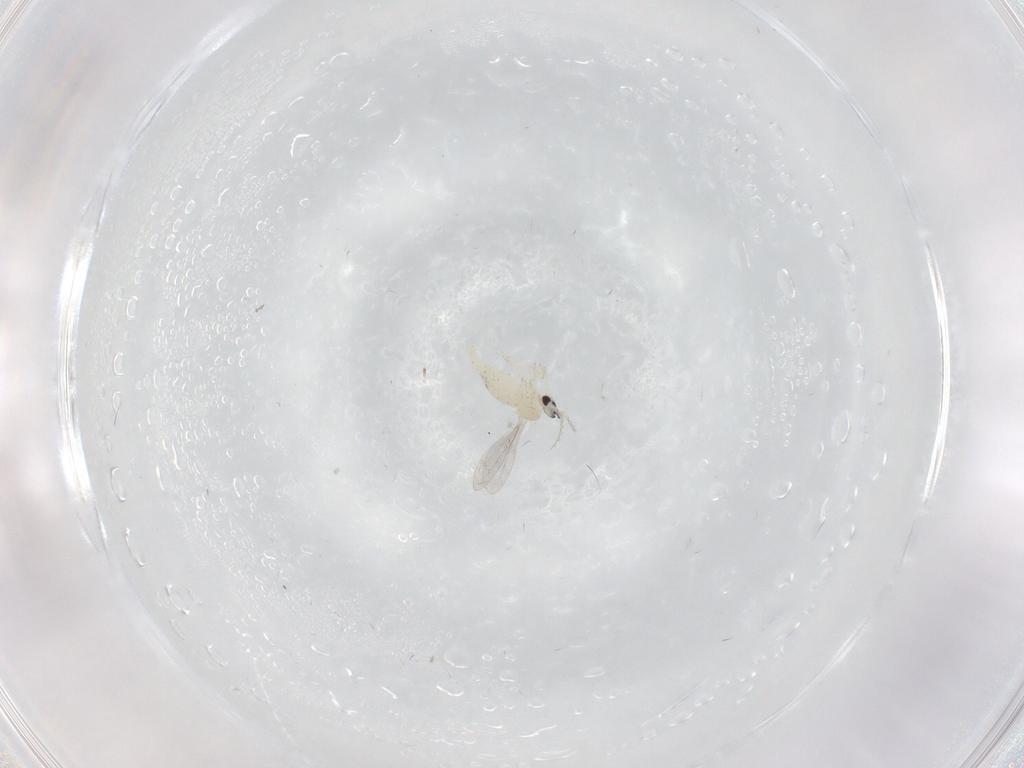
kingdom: Animalia
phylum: Arthropoda
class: Insecta
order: Diptera
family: Cecidomyiidae
